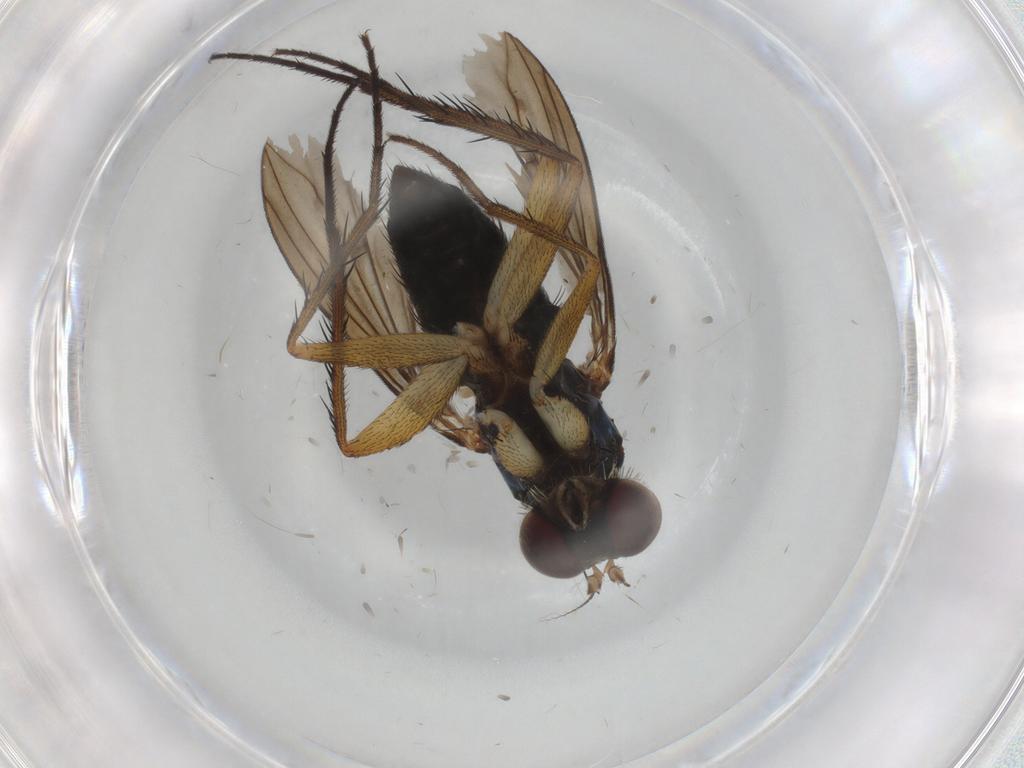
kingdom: Animalia
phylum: Arthropoda
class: Insecta
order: Diptera
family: Dolichopodidae
